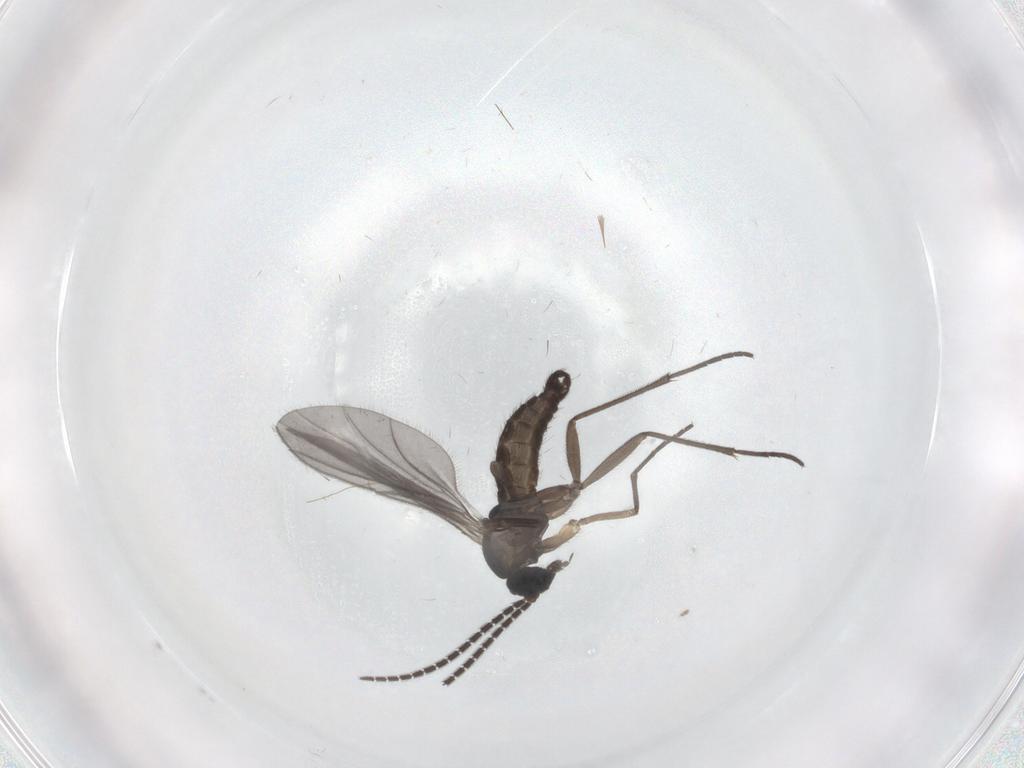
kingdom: Animalia
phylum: Arthropoda
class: Insecta
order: Diptera
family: Sciaridae
